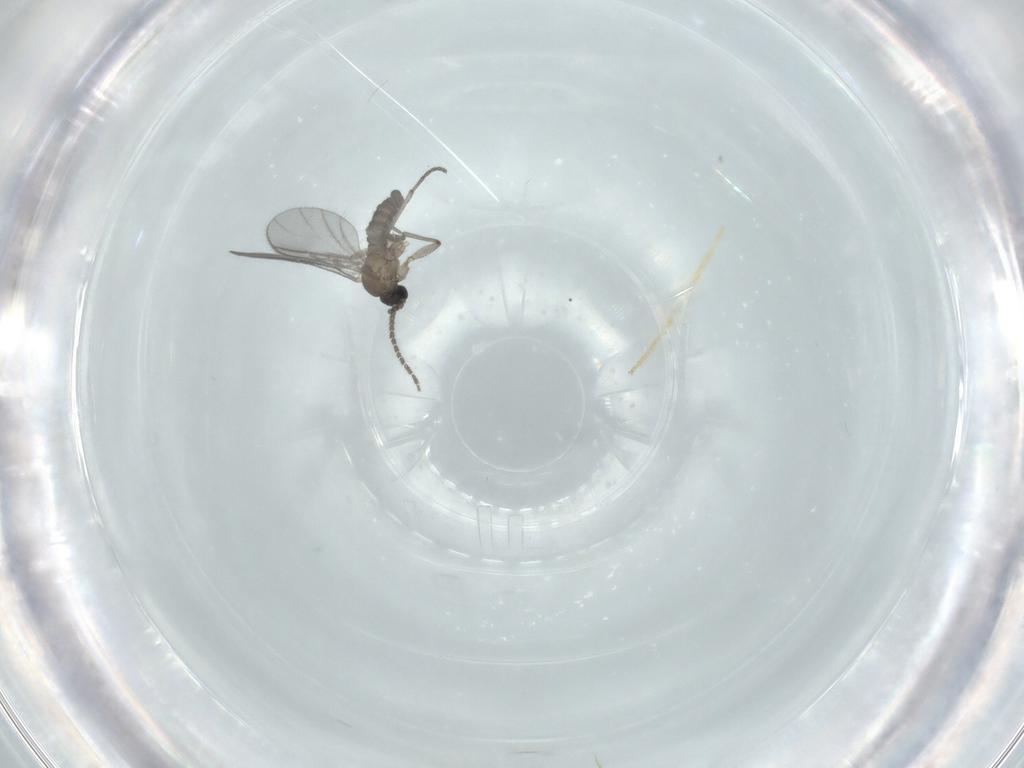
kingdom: Animalia
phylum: Arthropoda
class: Insecta
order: Diptera
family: Sciaridae
